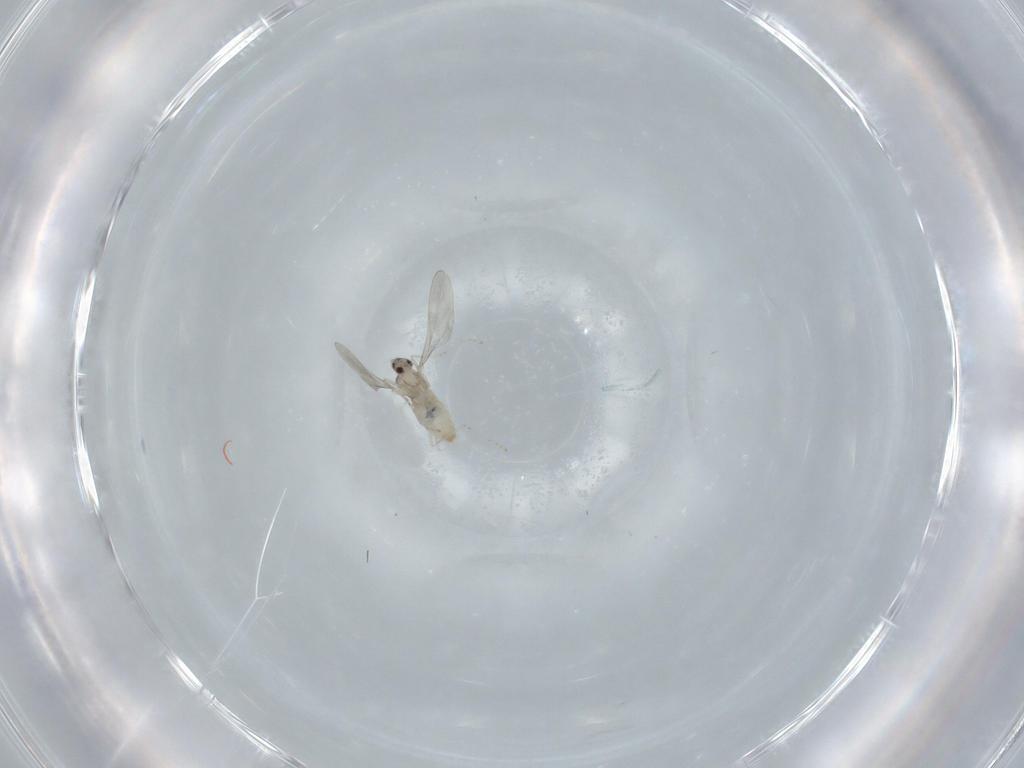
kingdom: Animalia
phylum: Arthropoda
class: Insecta
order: Diptera
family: Cecidomyiidae
